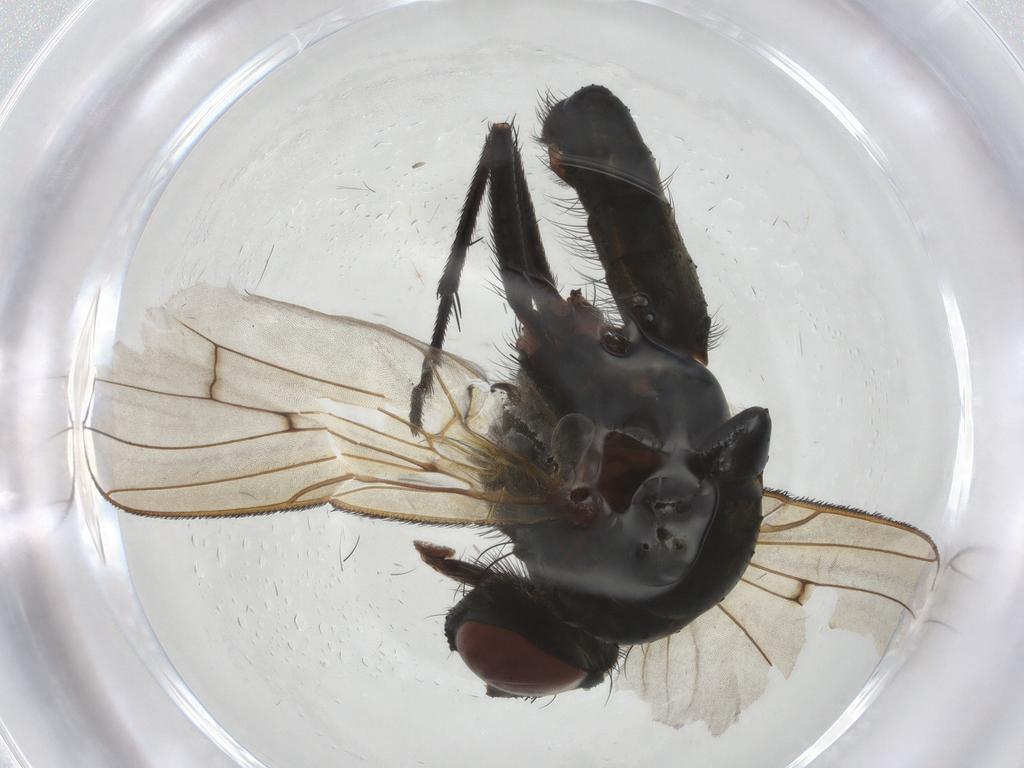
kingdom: Animalia
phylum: Arthropoda
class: Insecta
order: Diptera
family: Anthomyiidae
